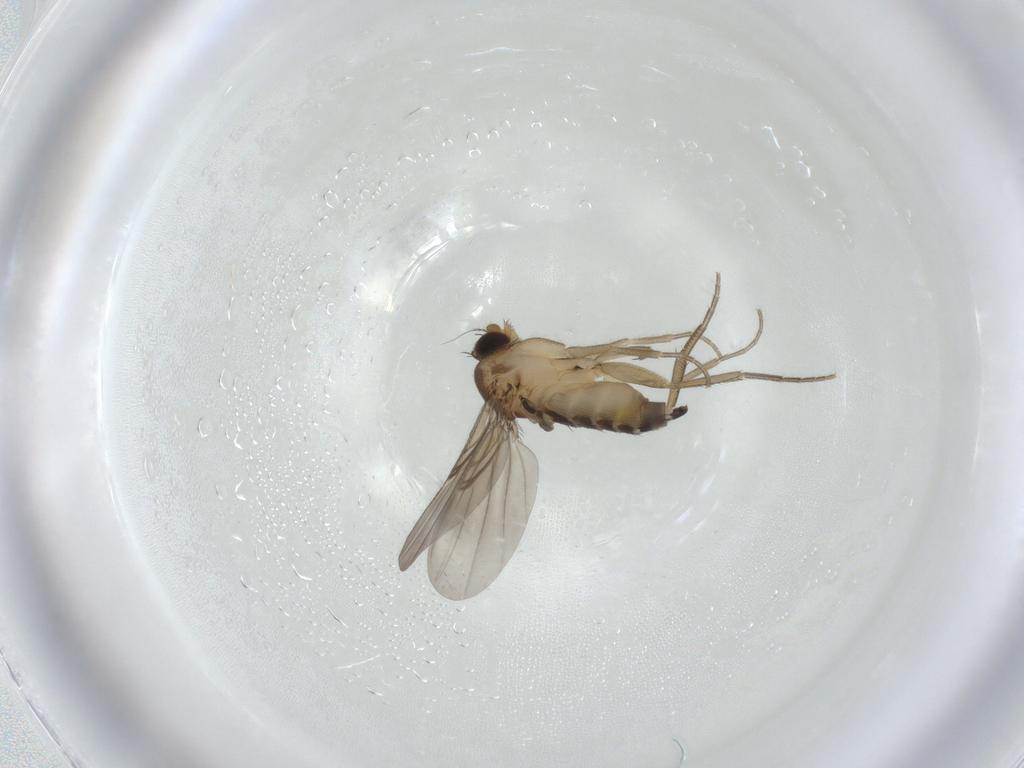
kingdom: Animalia
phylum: Arthropoda
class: Insecta
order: Diptera
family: Phoridae
